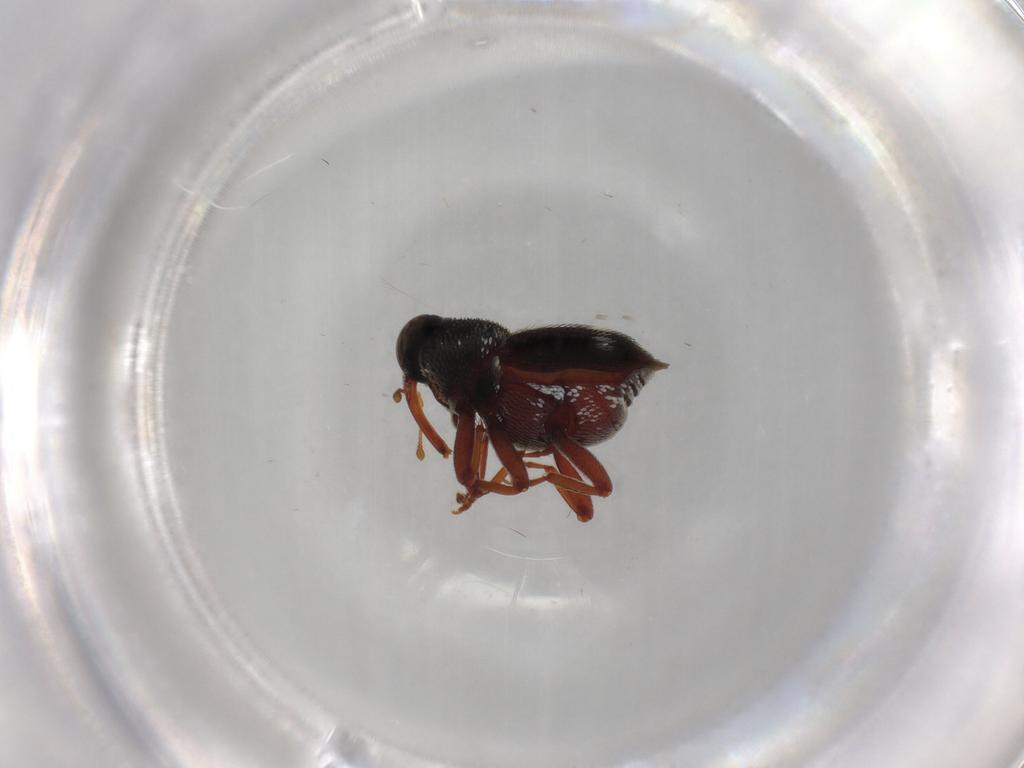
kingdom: Animalia
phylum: Arthropoda
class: Insecta
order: Coleoptera
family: Curculionidae
